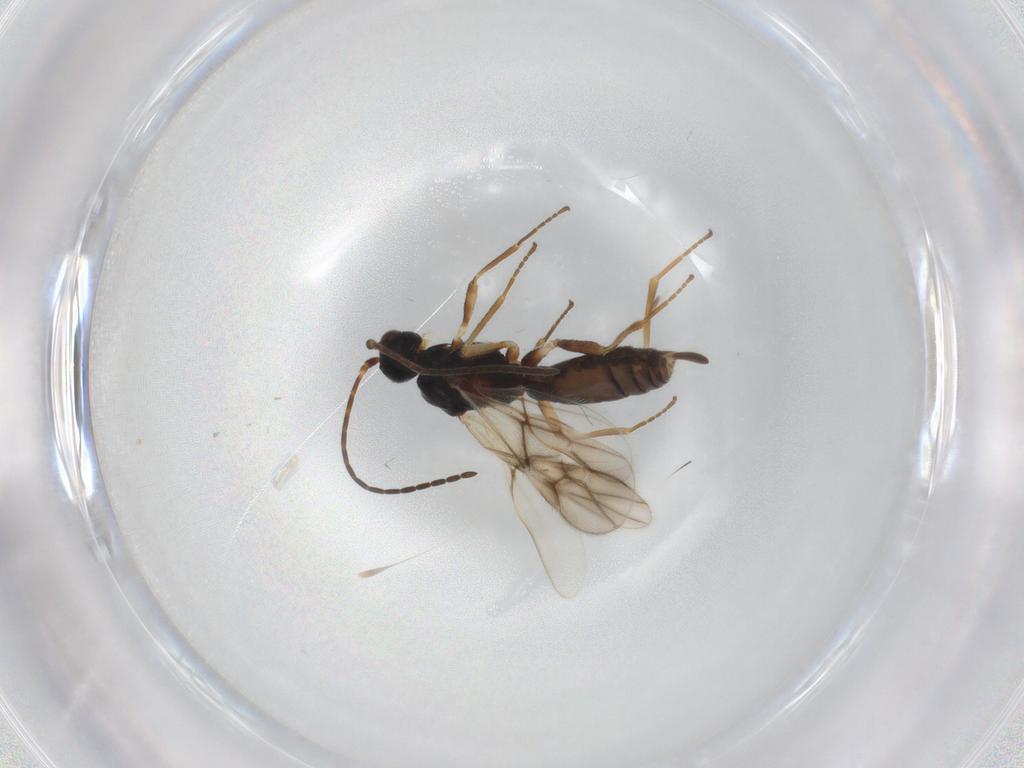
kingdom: Animalia
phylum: Arthropoda
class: Insecta
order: Hymenoptera
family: Braconidae
